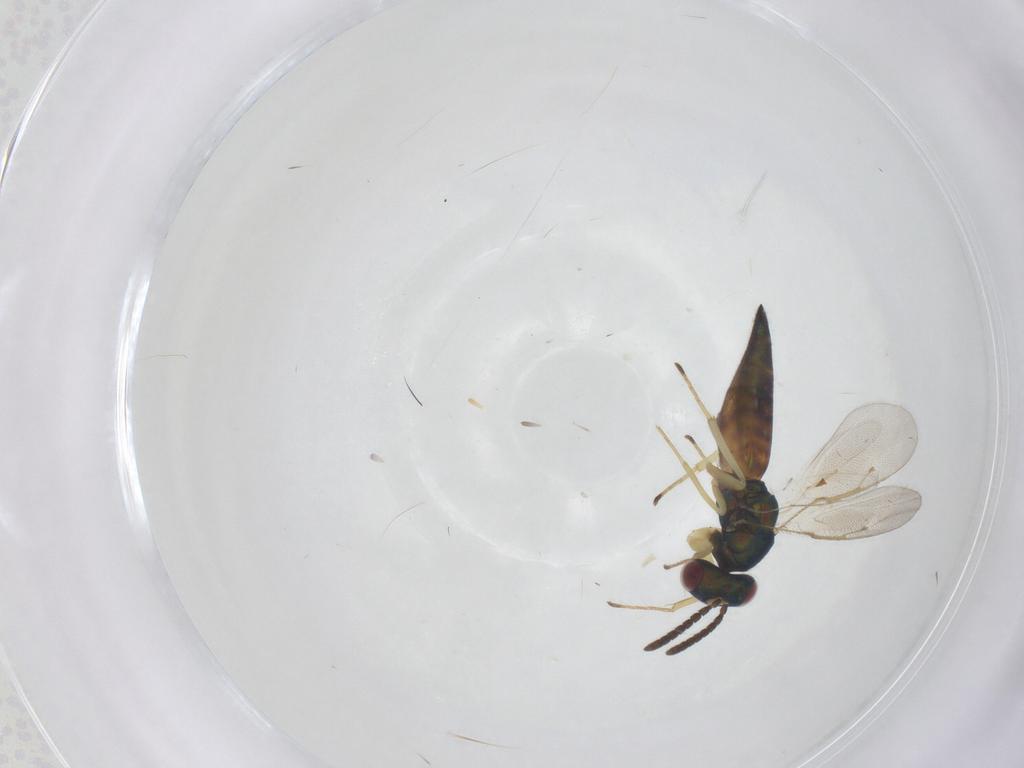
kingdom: Animalia
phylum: Arthropoda
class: Insecta
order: Hymenoptera
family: Pteromalidae
